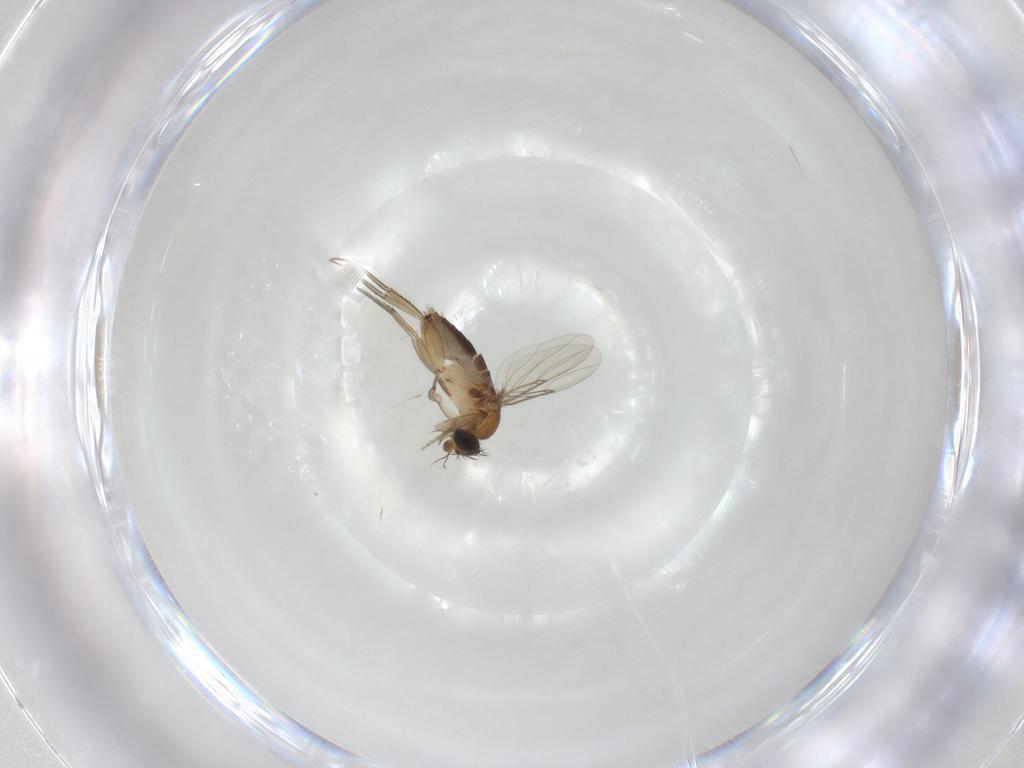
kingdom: Animalia
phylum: Arthropoda
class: Insecta
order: Diptera
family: Phoridae
